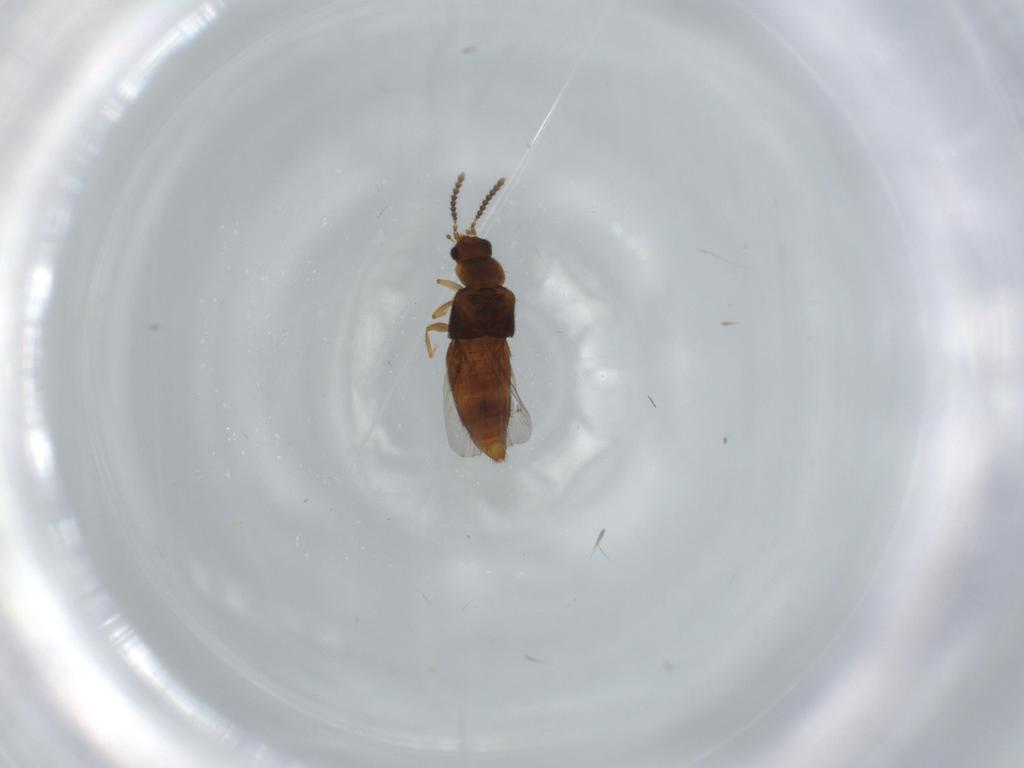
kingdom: Animalia
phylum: Arthropoda
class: Insecta
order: Coleoptera
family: Chrysomelidae
